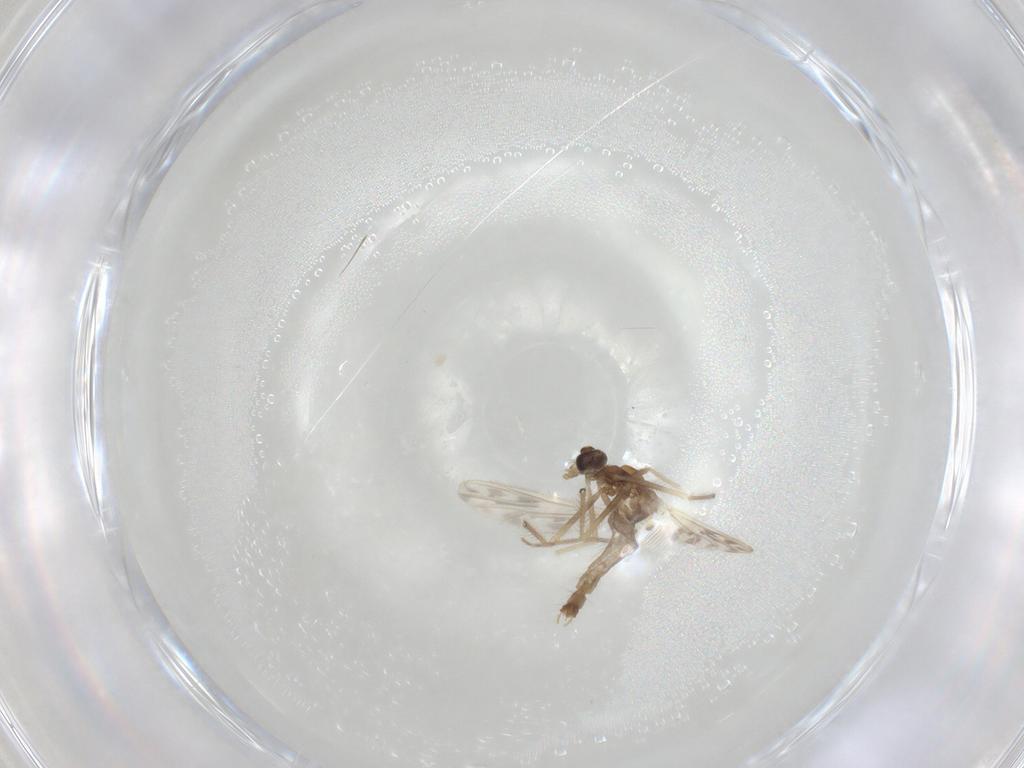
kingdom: Animalia
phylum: Arthropoda
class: Insecta
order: Diptera
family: Chironomidae
